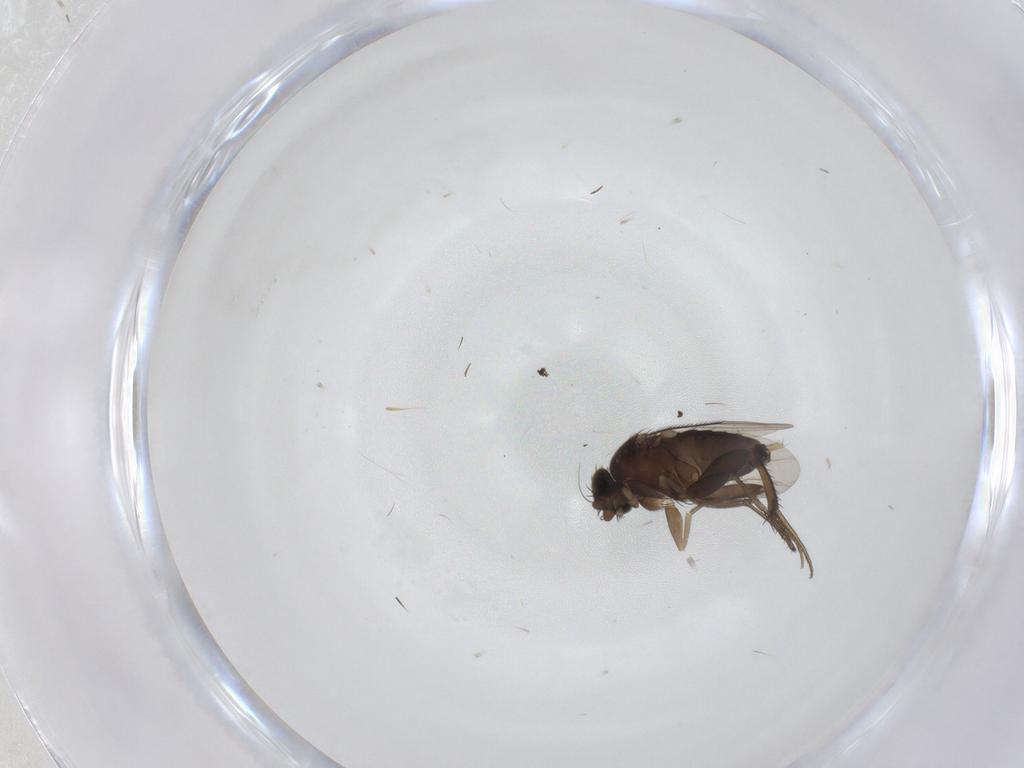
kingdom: Animalia
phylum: Arthropoda
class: Insecta
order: Diptera
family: Phoridae
